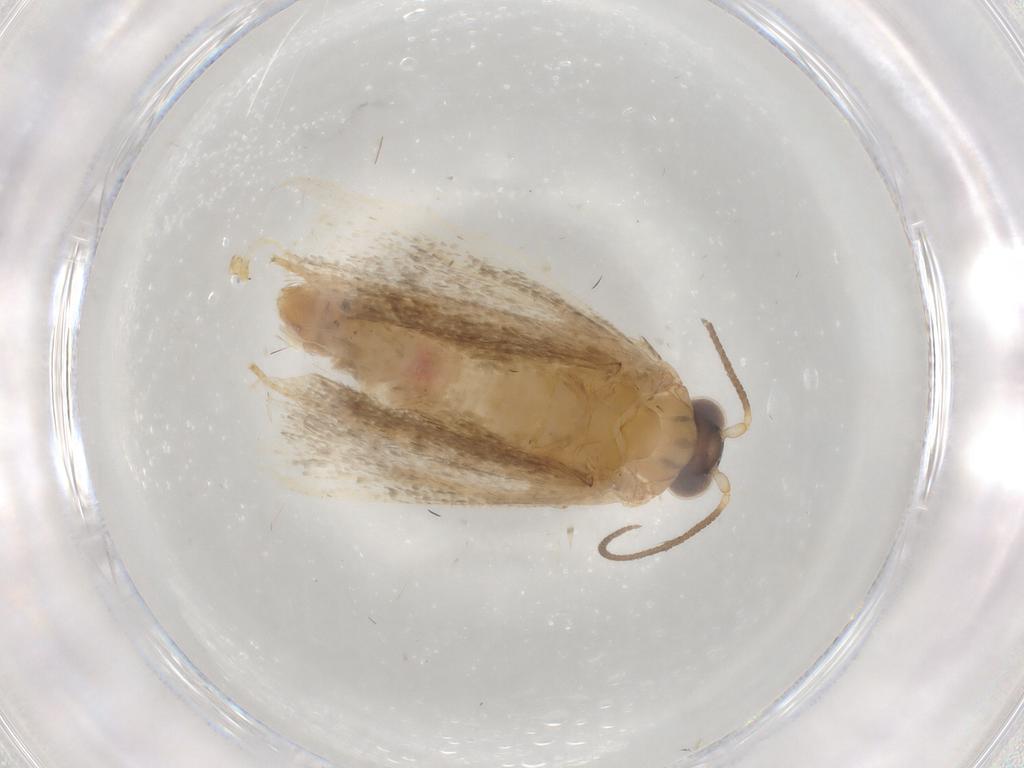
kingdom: Animalia
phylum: Arthropoda
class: Insecta
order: Lepidoptera
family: Tortricidae
